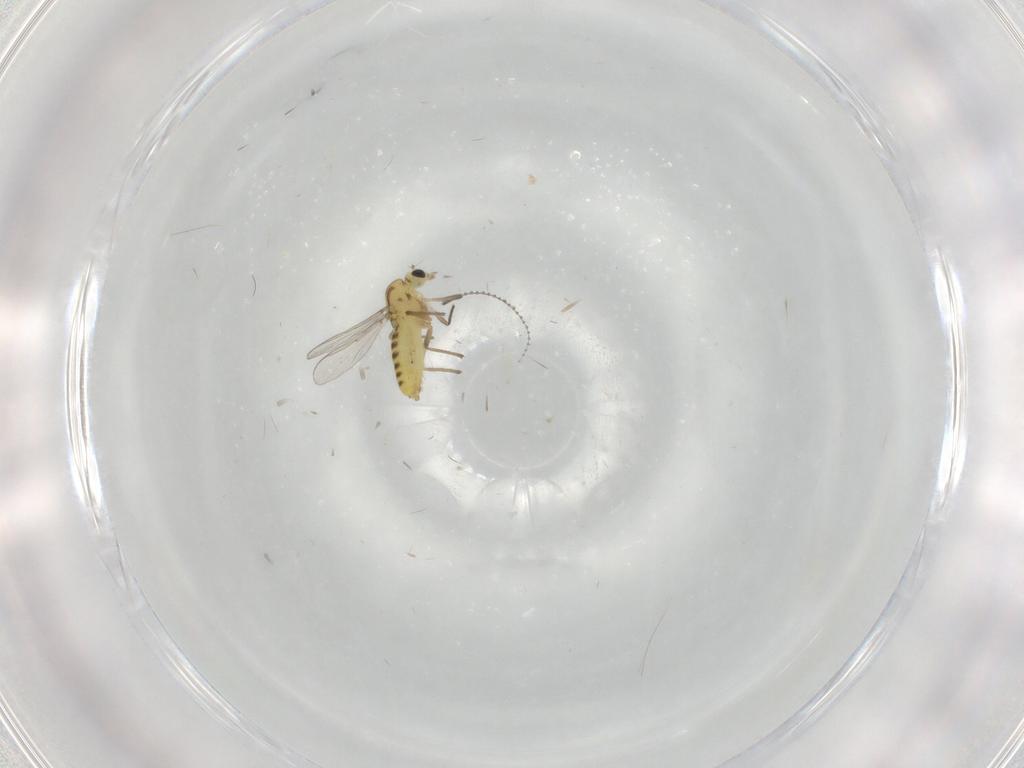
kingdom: Animalia
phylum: Arthropoda
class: Insecta
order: Diptera
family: Chironomidae
